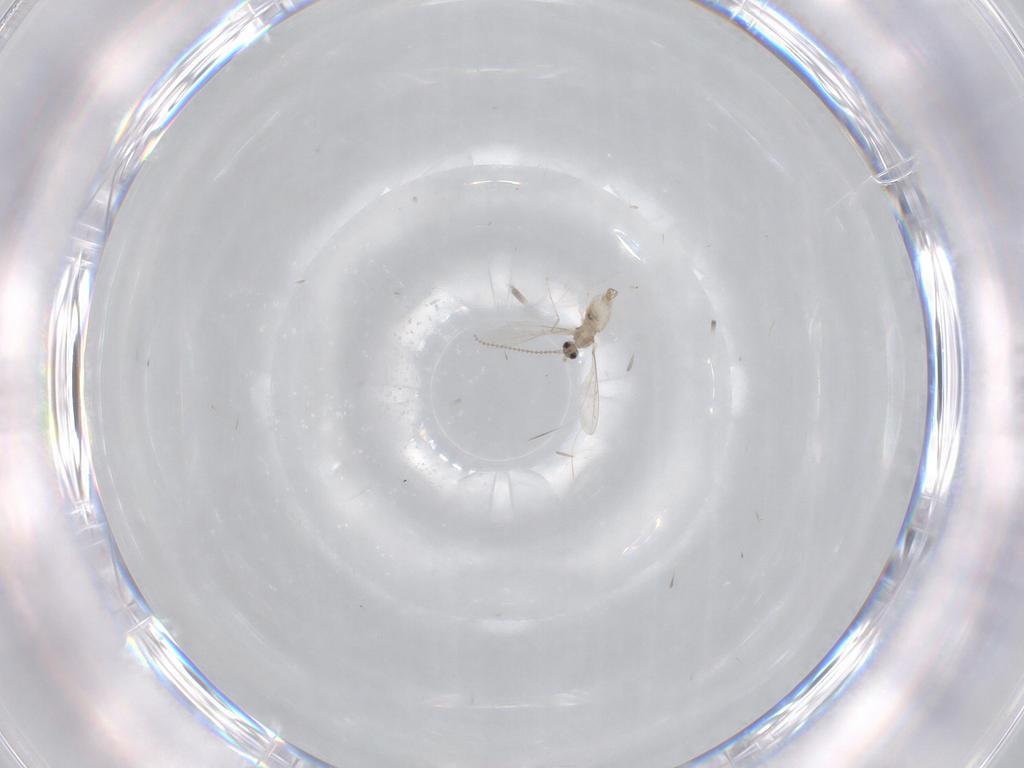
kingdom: Animalia
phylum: Arthropoda
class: Insecta
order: Diptera
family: Cecidomyiidae
